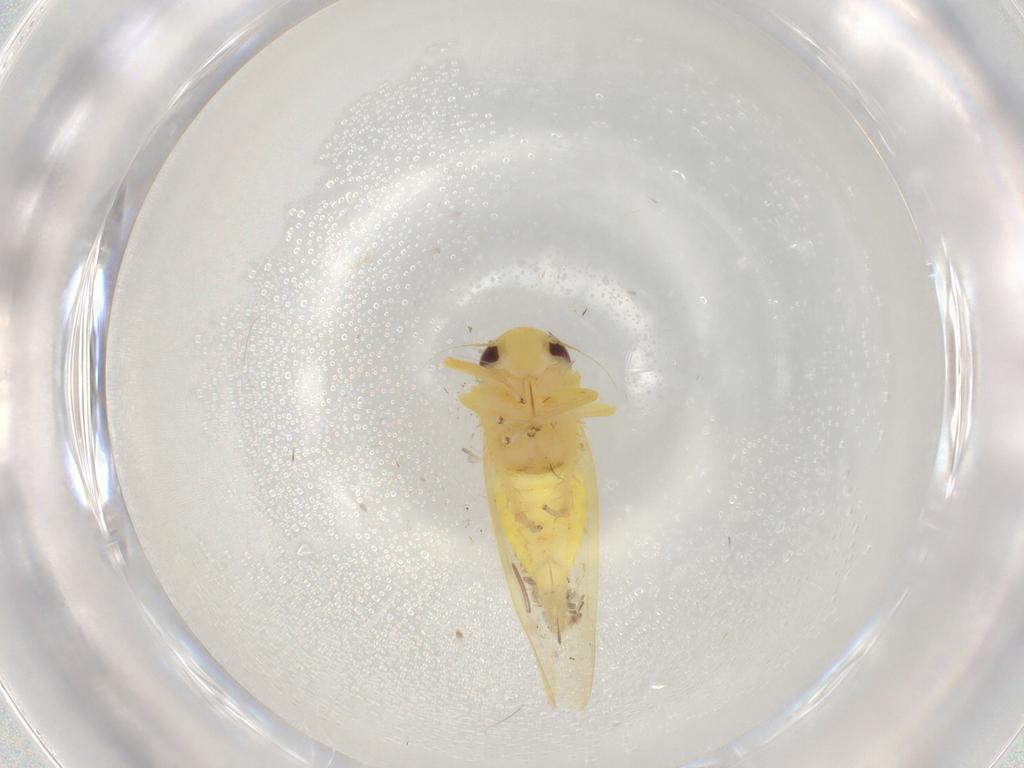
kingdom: Animalia
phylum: Arthropoda
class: Insecta
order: Hemiptera
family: Cicadellidae
